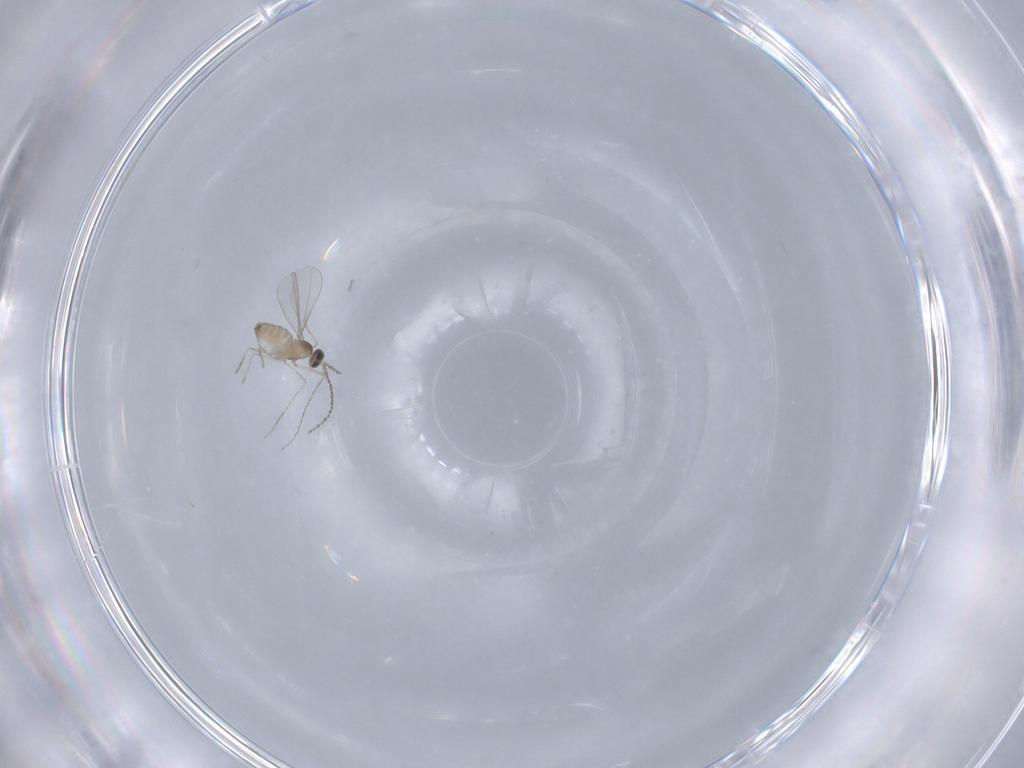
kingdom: Animalia
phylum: Arthropoda
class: Insecta
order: Diptera
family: Cecidomyiidae
